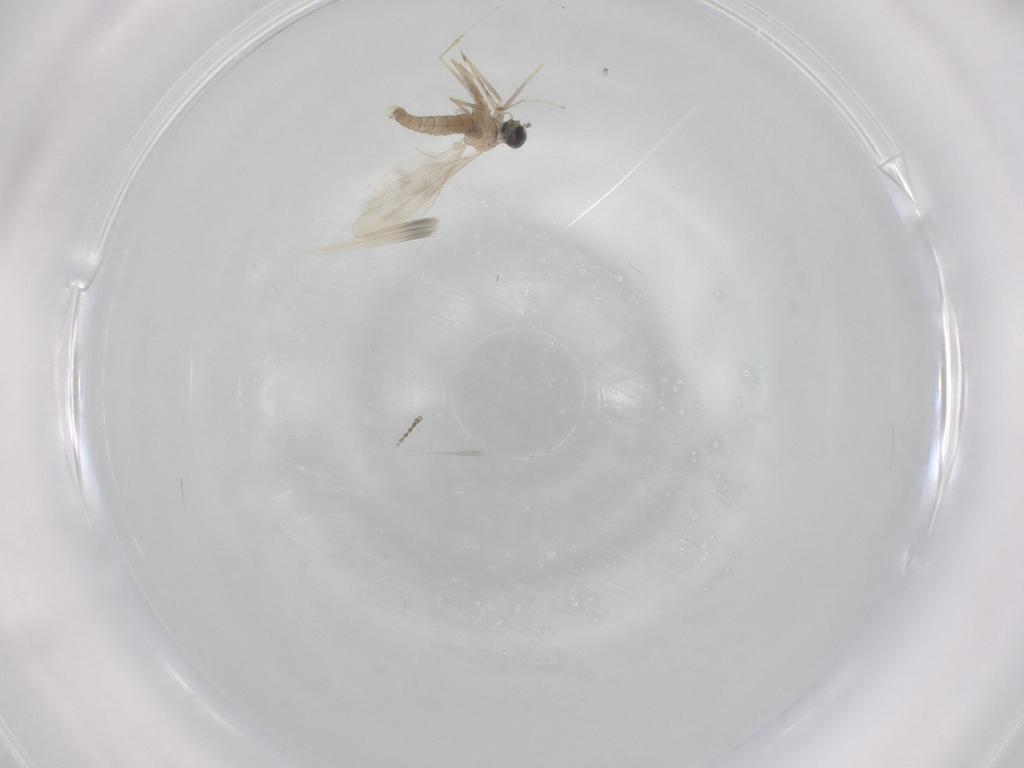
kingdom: Animalia
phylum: Arthropoda
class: Insecta
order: Diptera
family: Cecidomyiidae
